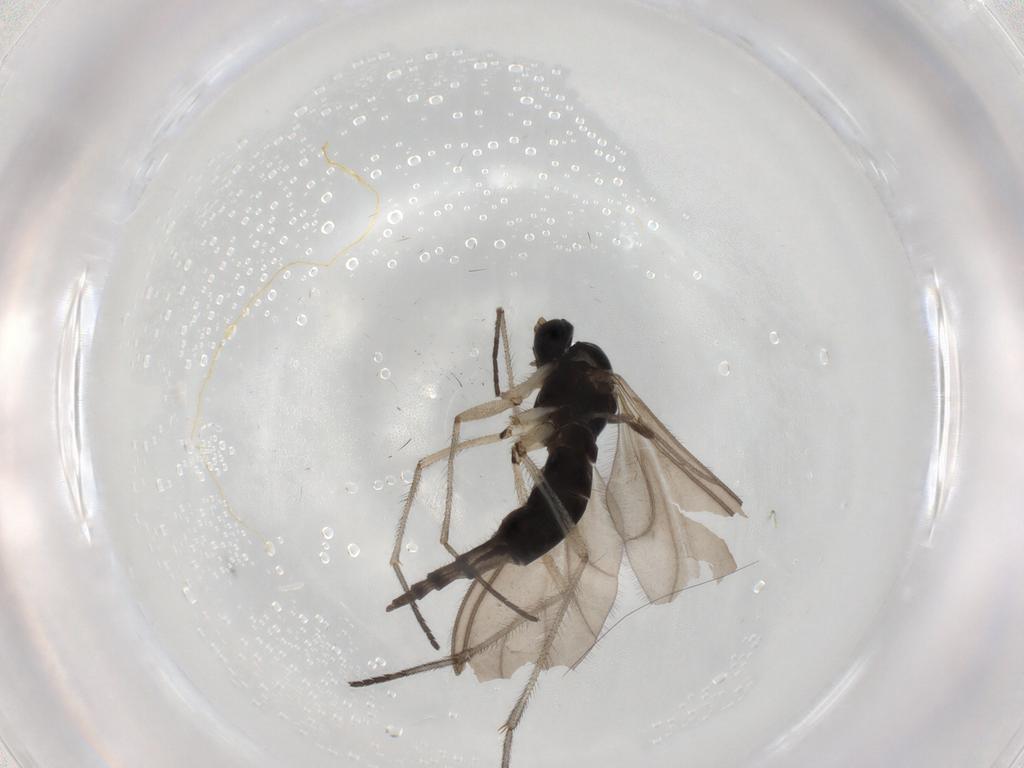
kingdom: Animalia
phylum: Arthropoda
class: Insecta
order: Diptera
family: Sciaridae
